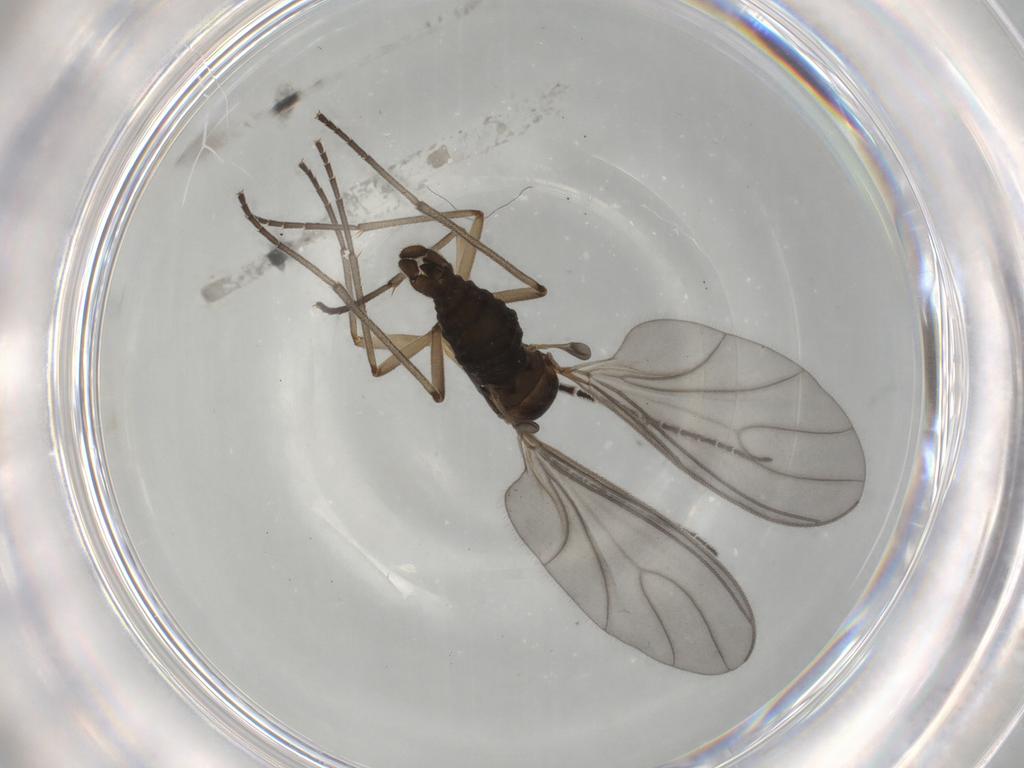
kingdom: Animalia
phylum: Arthropoda
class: Insecta
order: Diptera
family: Sciaridae
